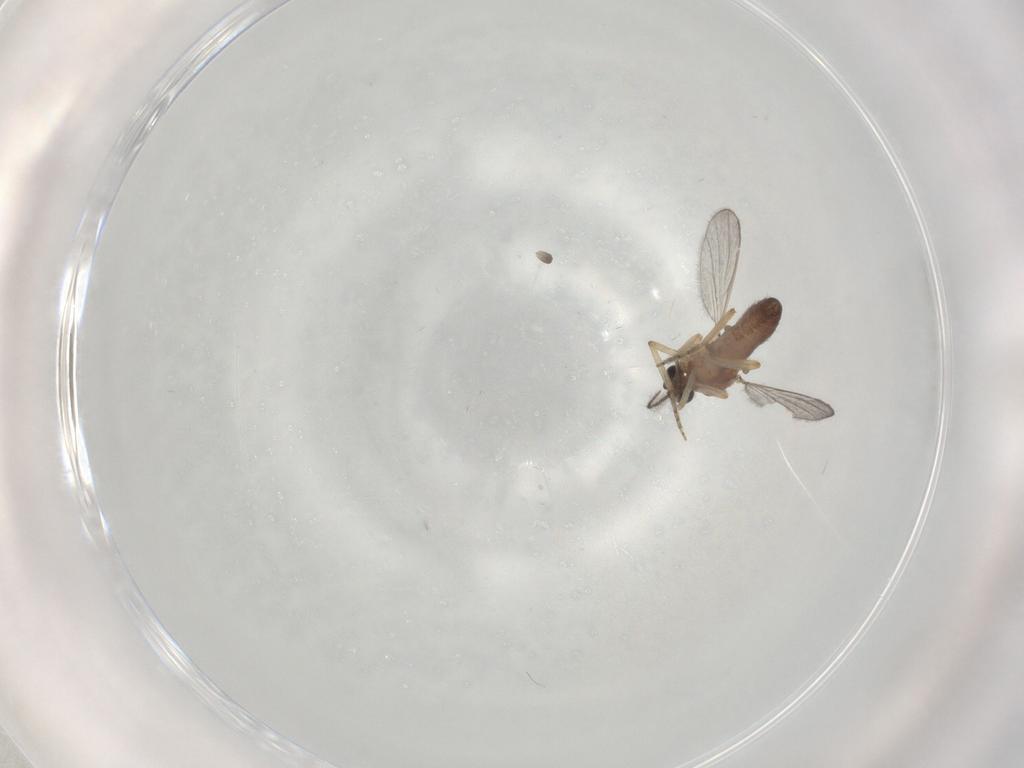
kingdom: Animalia
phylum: Arthropoda
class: Insecta
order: Diptera
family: Ceratopogonidae
